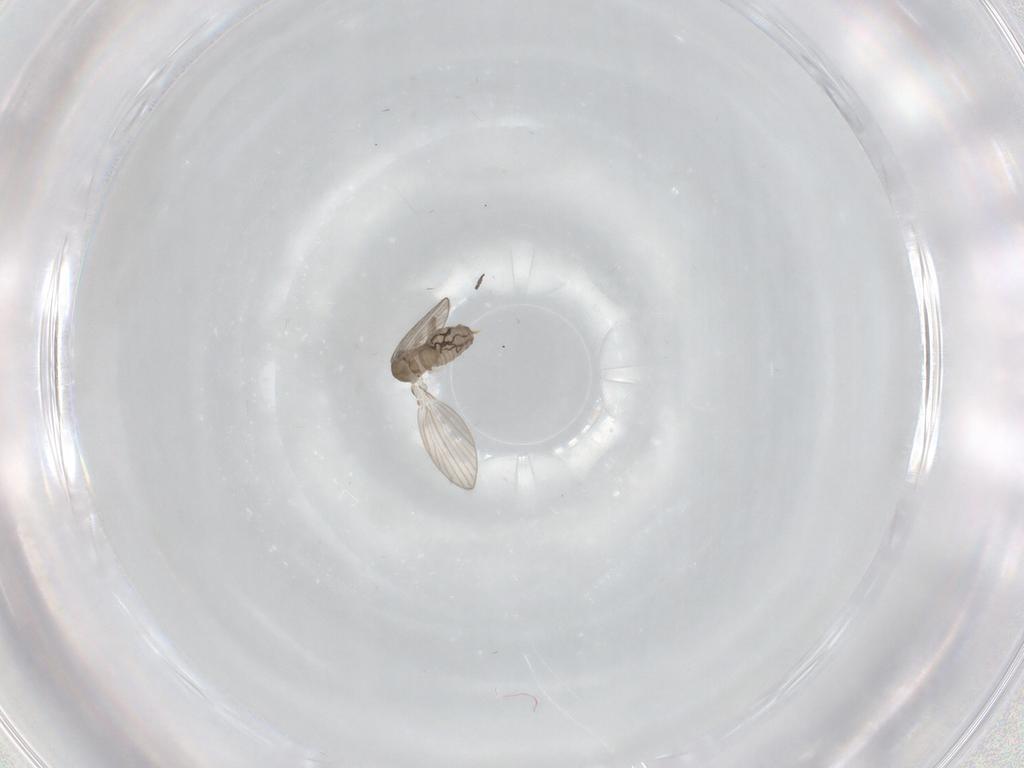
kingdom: Animalia
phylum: Arthropoda
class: Insecta
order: Diptera
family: Psychodidae
